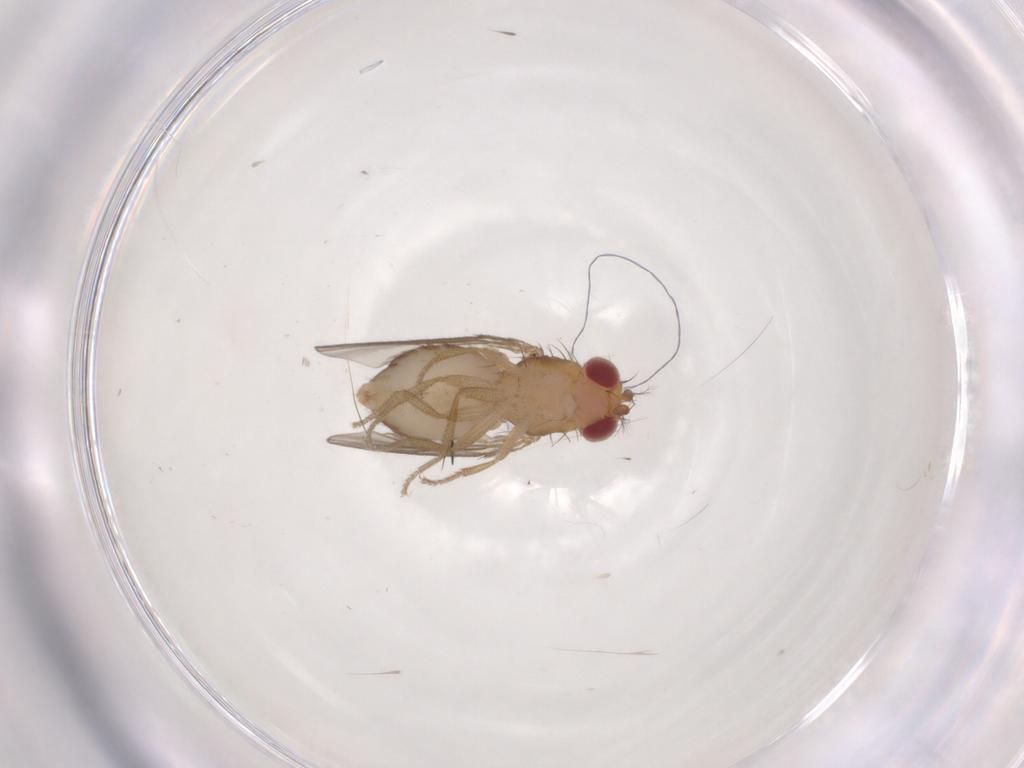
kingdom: Animalia
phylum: Arthropoda
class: Insecta
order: Diptera
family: Drosophilidae
